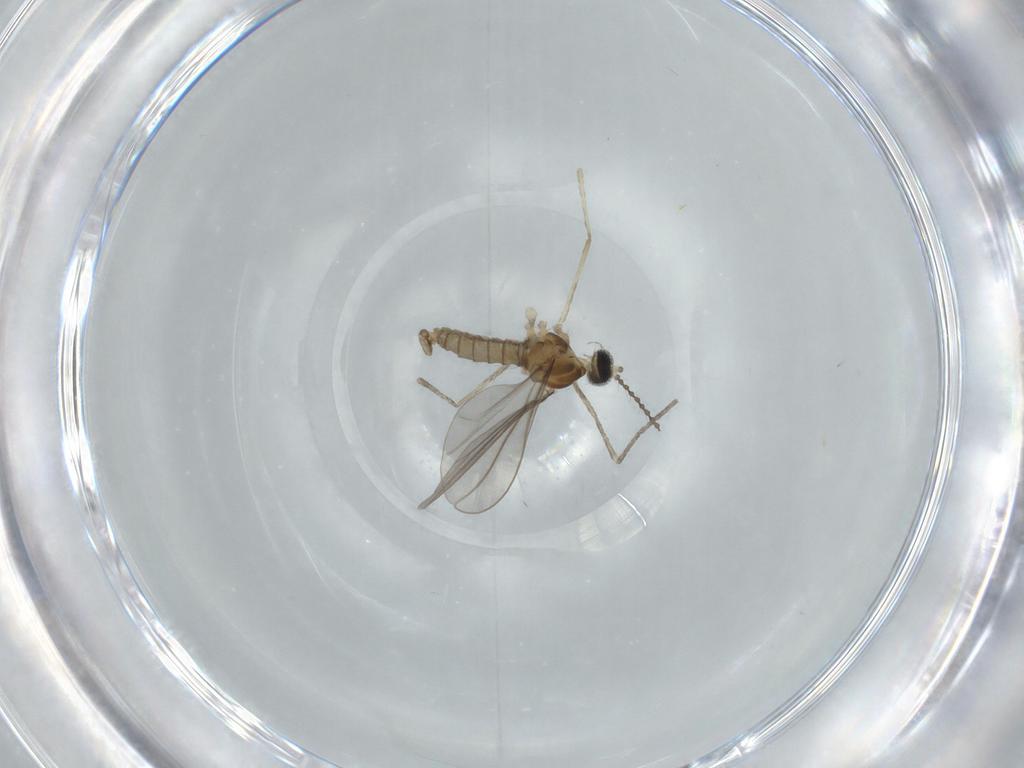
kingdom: Animalia
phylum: Arthropoda
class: Insecta
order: Diptera
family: Cecidomyiidae
